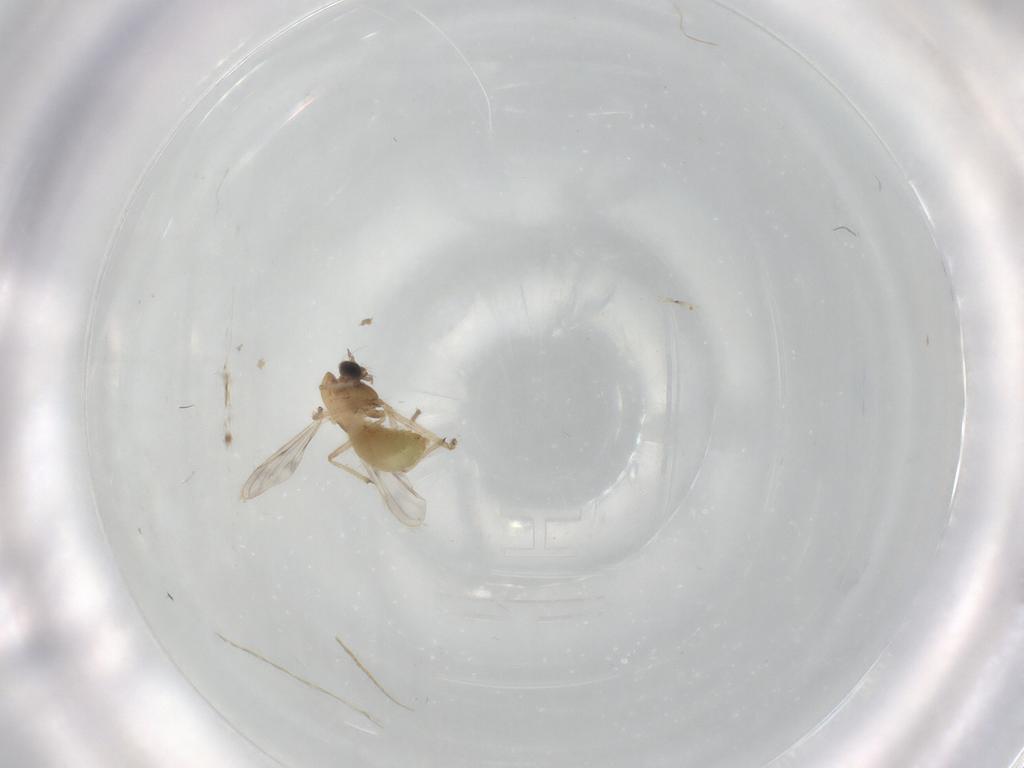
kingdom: Animalia
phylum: Arthropoda
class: Insecta
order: Diptera
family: Chironomidae
